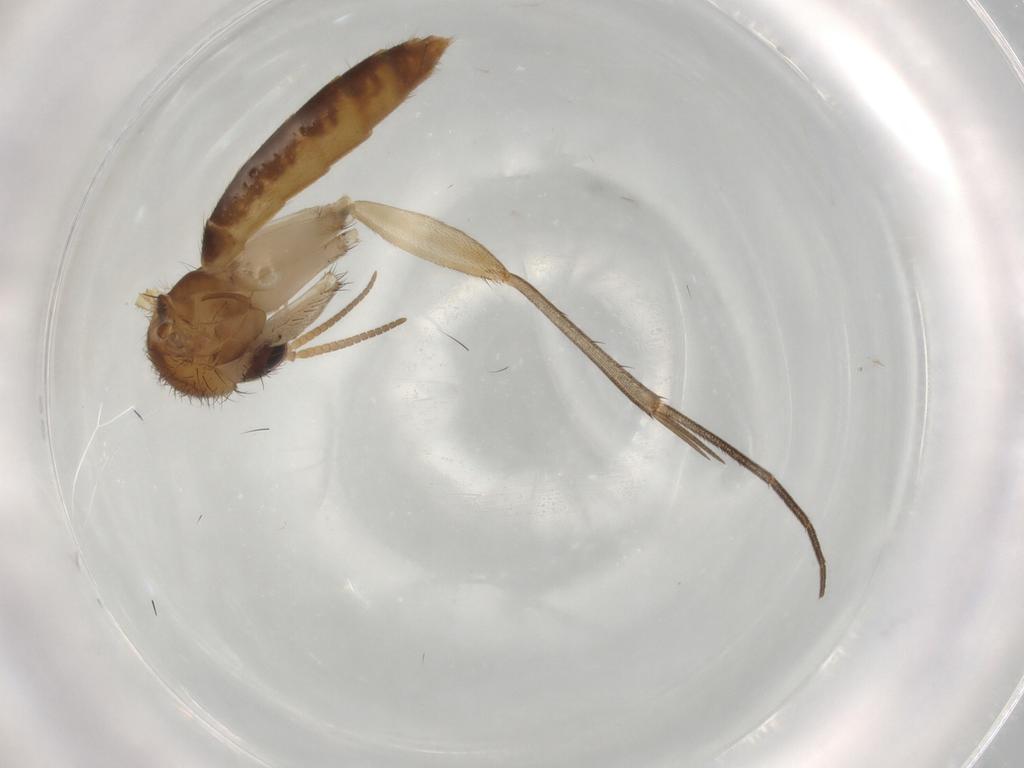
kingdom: Animalia
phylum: Arthropoda
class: Insecta
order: Diptera
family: Mycetophilidae
